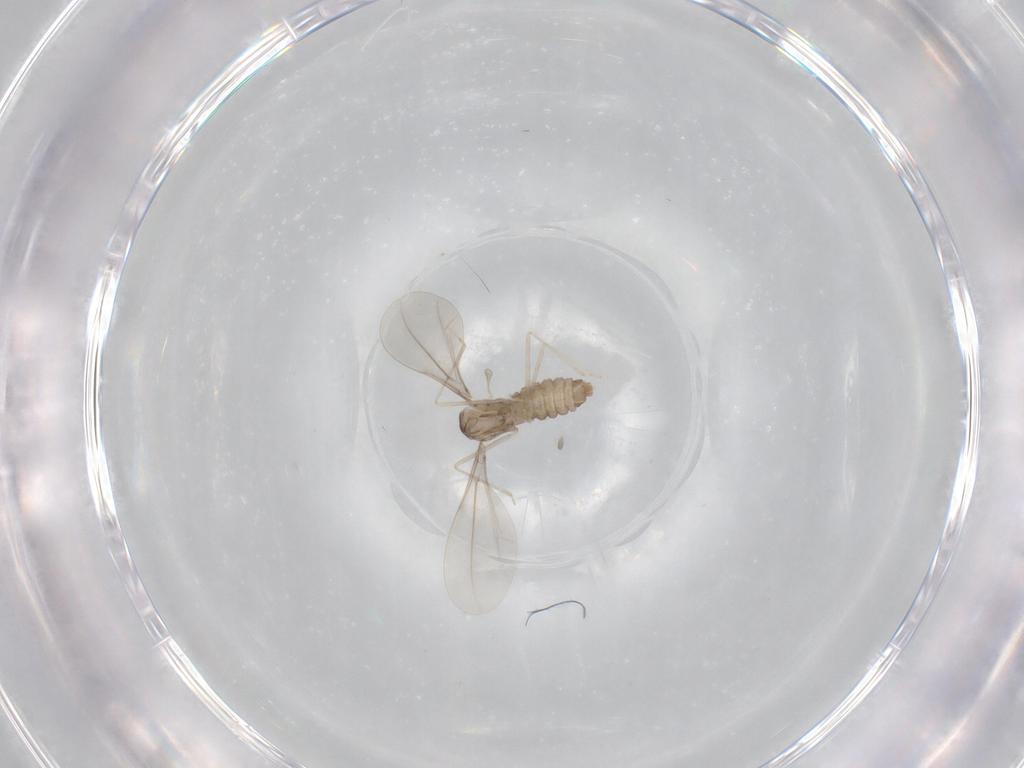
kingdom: Animalia
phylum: Arthropoda
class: Insecta
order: Diptera
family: Cecidomyiidae
